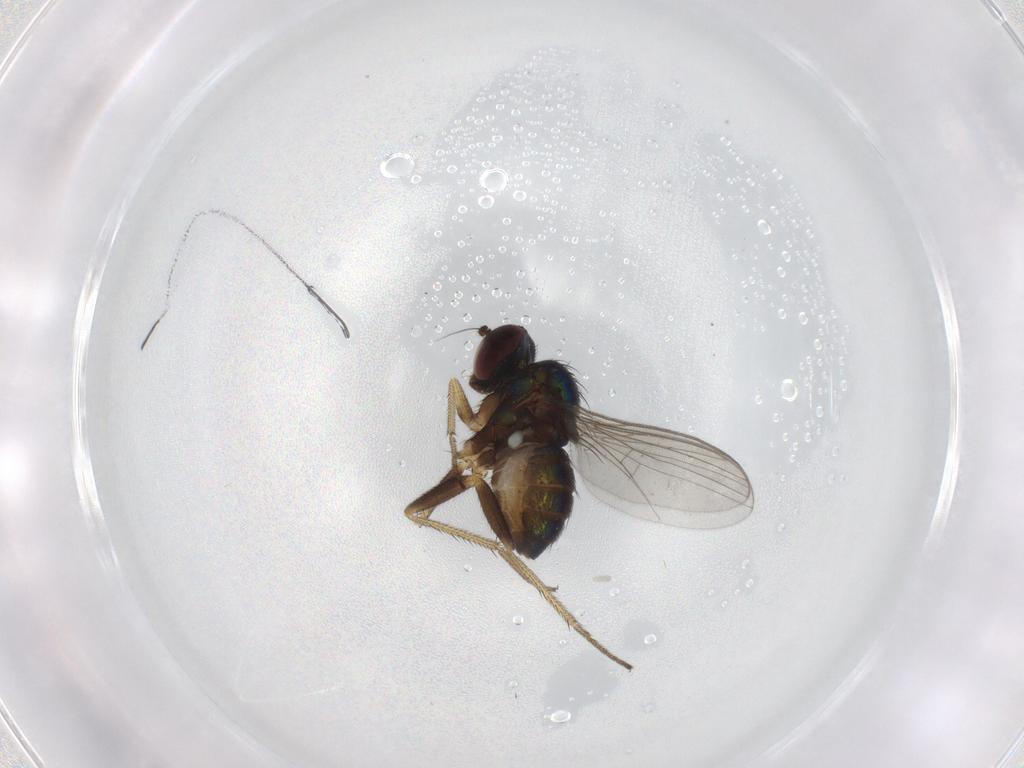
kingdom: Animalia
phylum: Arthropoda
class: Insecta
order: Diptera
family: Dolichopodidae
